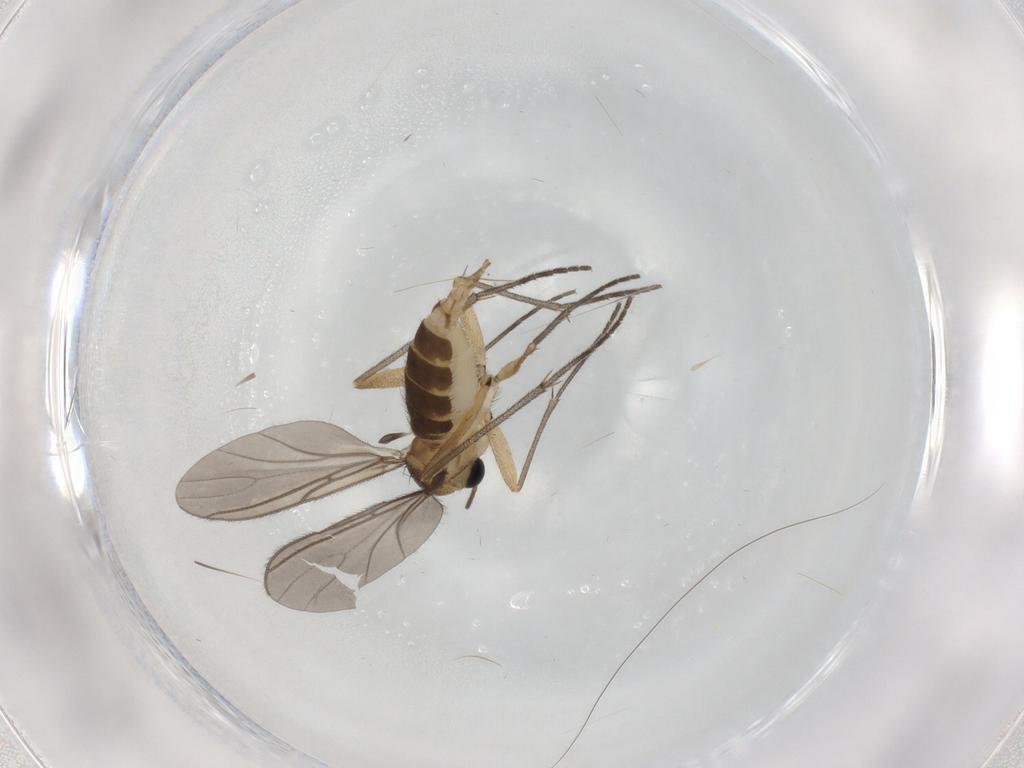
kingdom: Animalia
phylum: Arthropoda
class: Insecta
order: Diptera
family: Sciaridae
